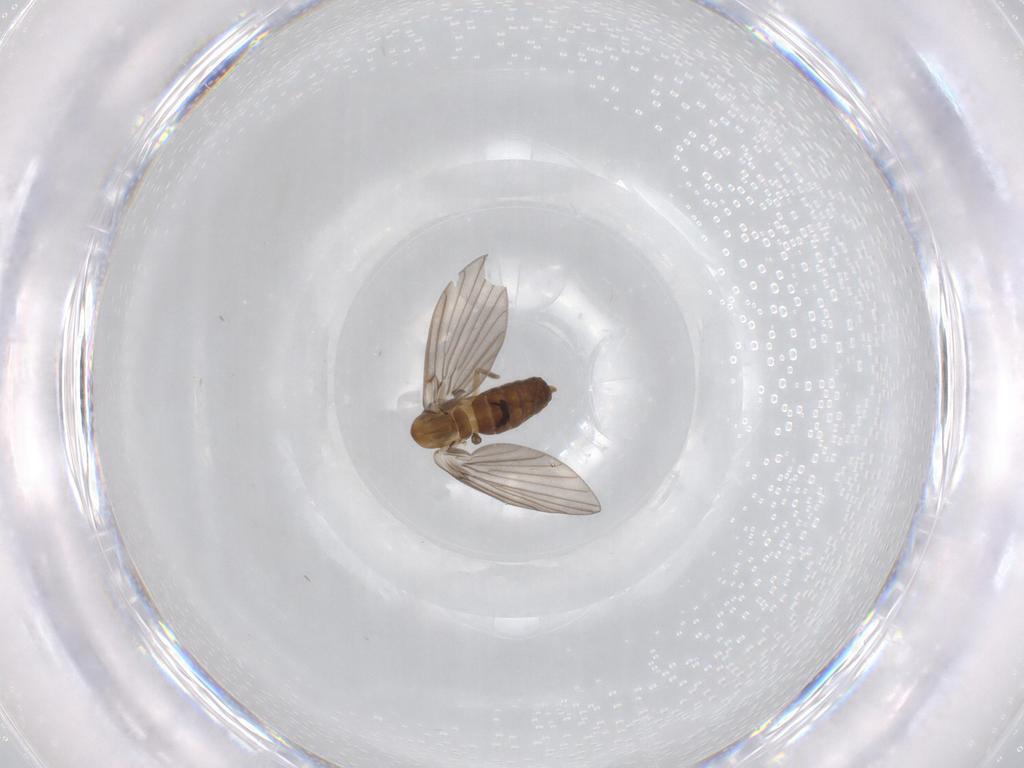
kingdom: Animalia
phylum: Arthropoda
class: Insecta
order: Diptera
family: Limoniidae
